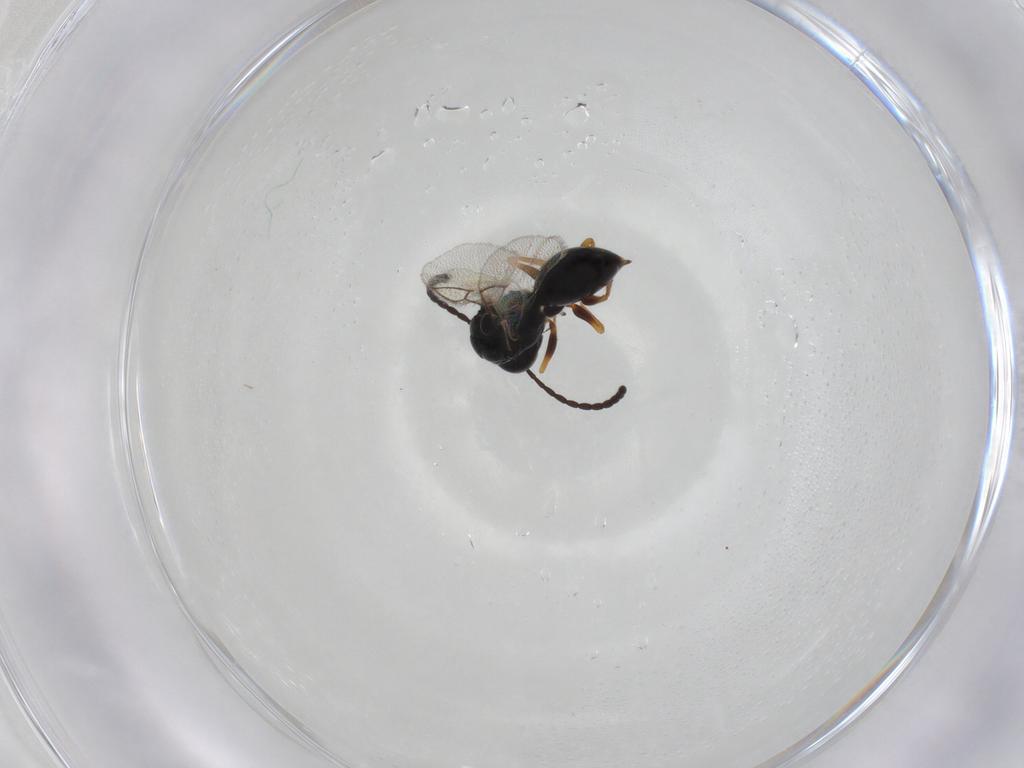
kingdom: Animalia
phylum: Arthropoda
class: Insecta
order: Hymenoptera
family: Figitidae
